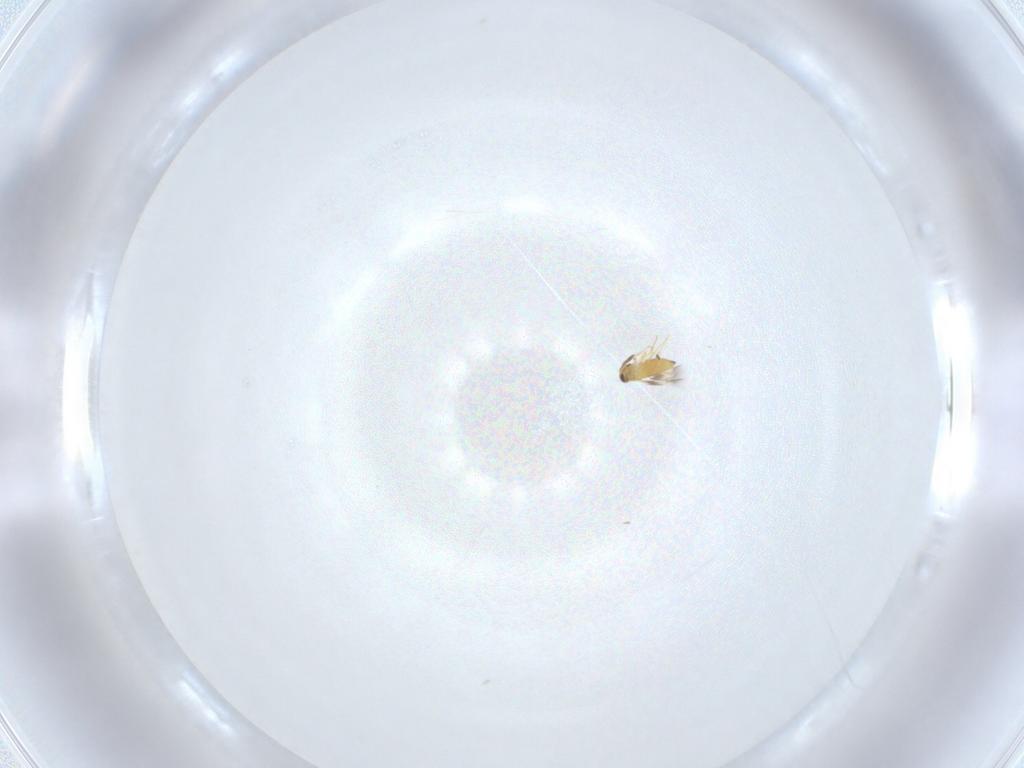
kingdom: Animalia
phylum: Arthropoda
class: Insecta
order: Hymenoptera
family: Signiphoridae
